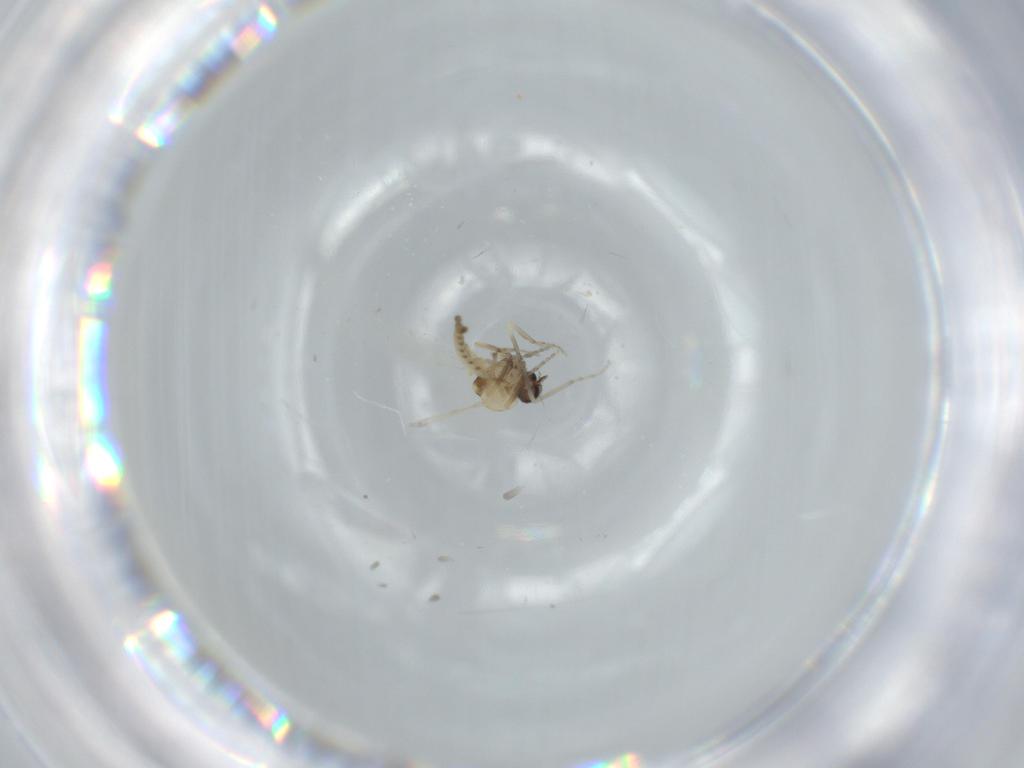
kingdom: Animalia
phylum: Arthropoda
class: Insecta
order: Diptera
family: Ceratopogonidae
